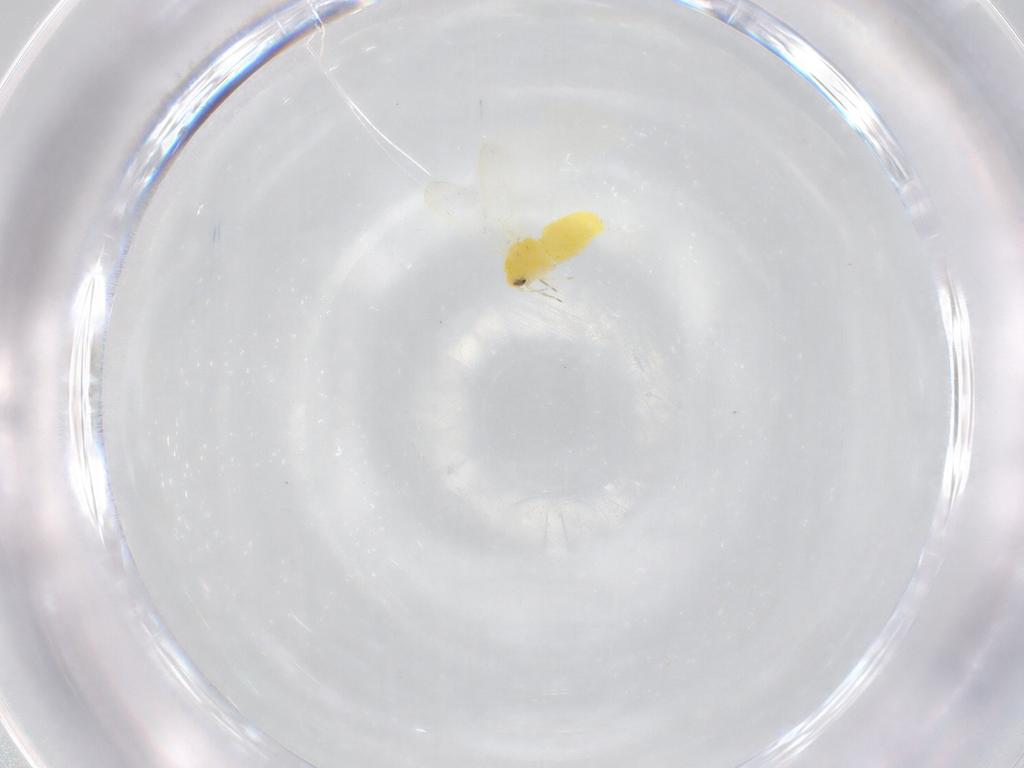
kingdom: Animalia
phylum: Arthropoda
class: Insecta
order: Hemiptera
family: Aleyrodidae
